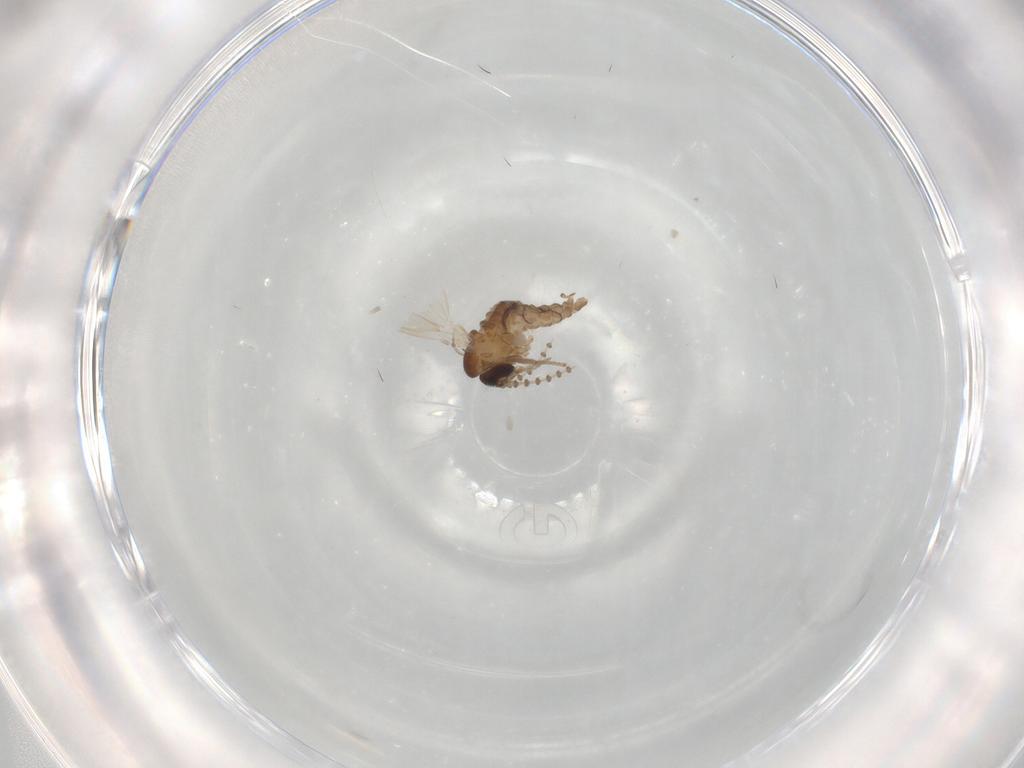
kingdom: Animalia
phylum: Arthropoda
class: Insecta
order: Diptera
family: Psychodidae
